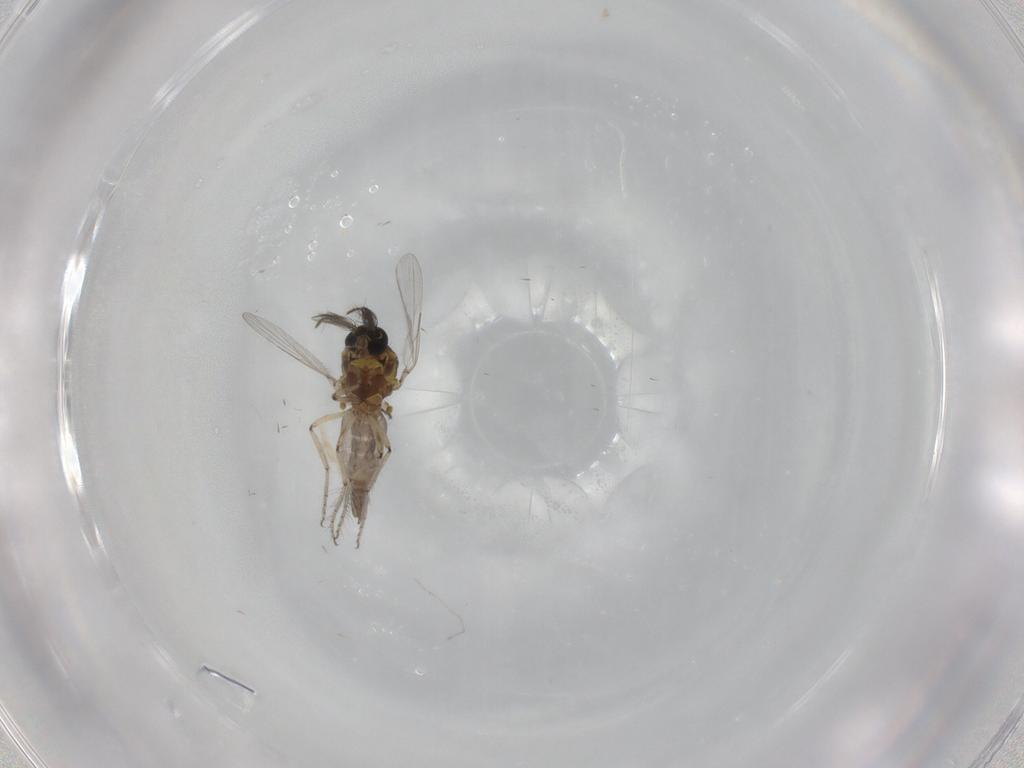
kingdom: Animalia
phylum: Arthropoda
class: Insecta
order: Diptera
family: Ceratopogonidae
